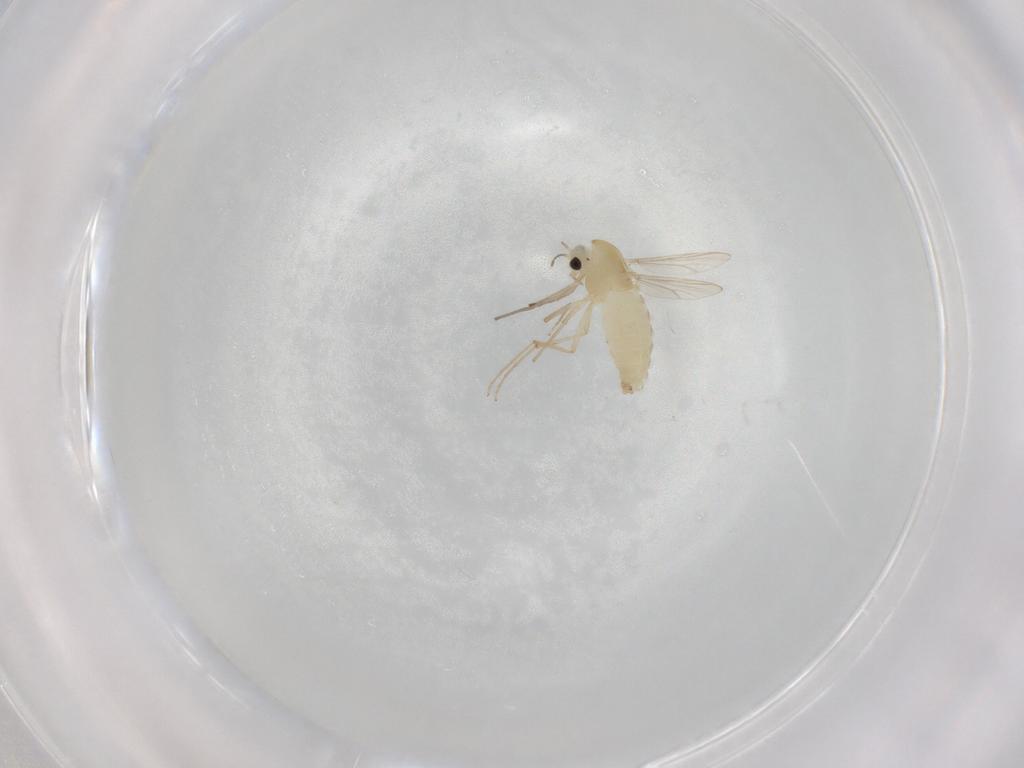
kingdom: Animalia
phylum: Arthropoda
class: Insecta
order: Diptera
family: Chironomidae
